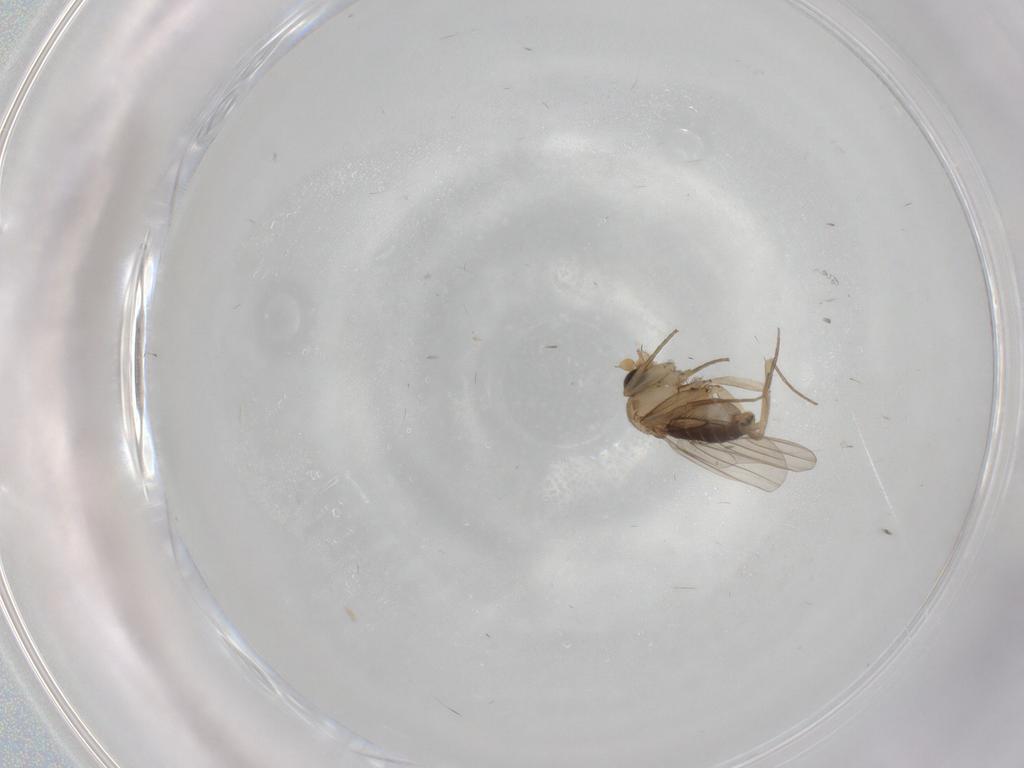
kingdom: Animalia
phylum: Arthropoda
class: Insecta
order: Diptera
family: Phoridae
